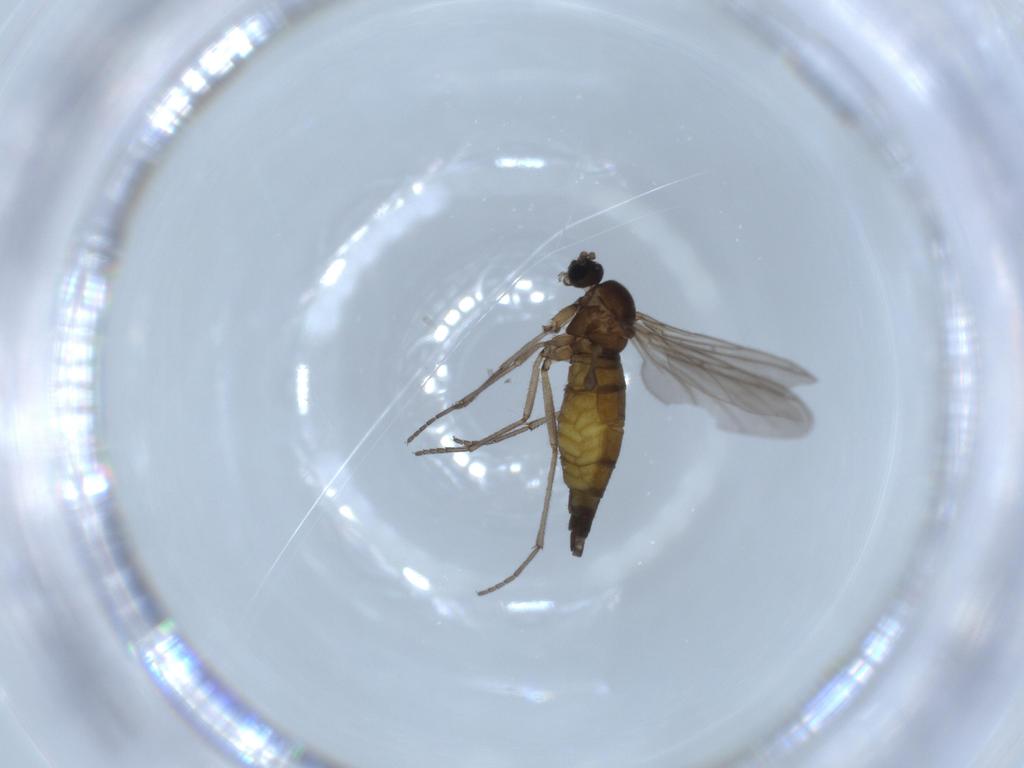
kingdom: Animalia
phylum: Arthropoda
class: Insecta
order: Diptera
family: Sciaridae
